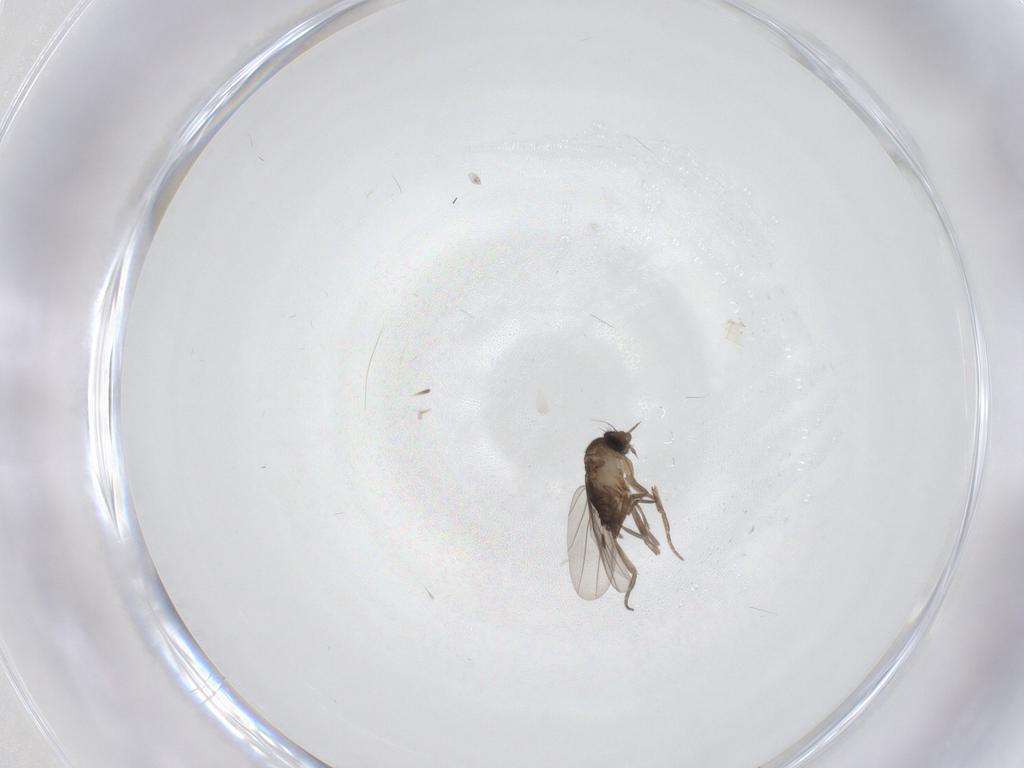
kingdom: Animalia
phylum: Arthropoda
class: Insecta
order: Diptera
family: Phoridae
